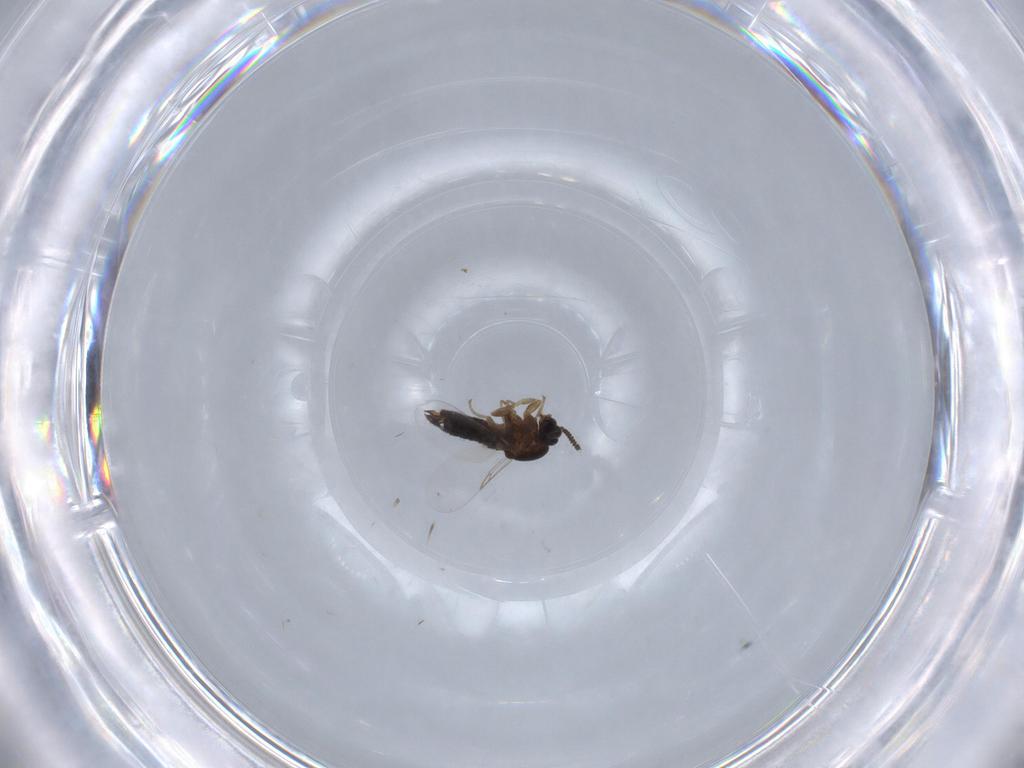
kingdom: Animalia
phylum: Arthropoda
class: Insecta
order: Diptera
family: Scatopsidae
